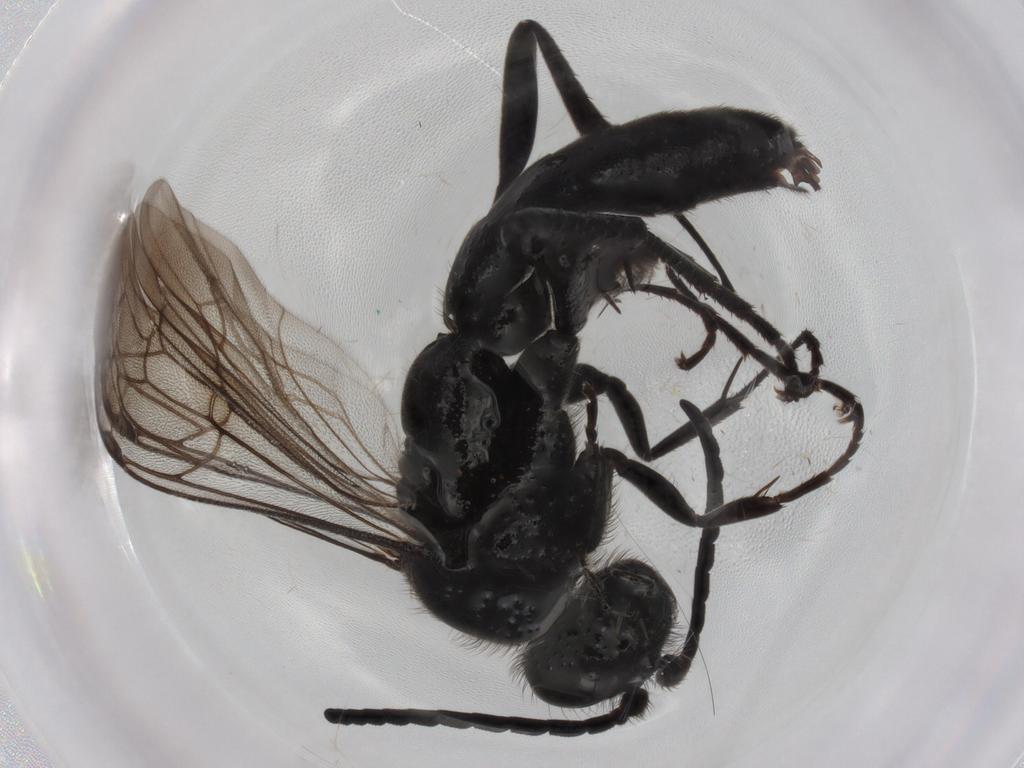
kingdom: Animalia
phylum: Arthropoda
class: Insecta
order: Hymenoptera
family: Pompilidae
